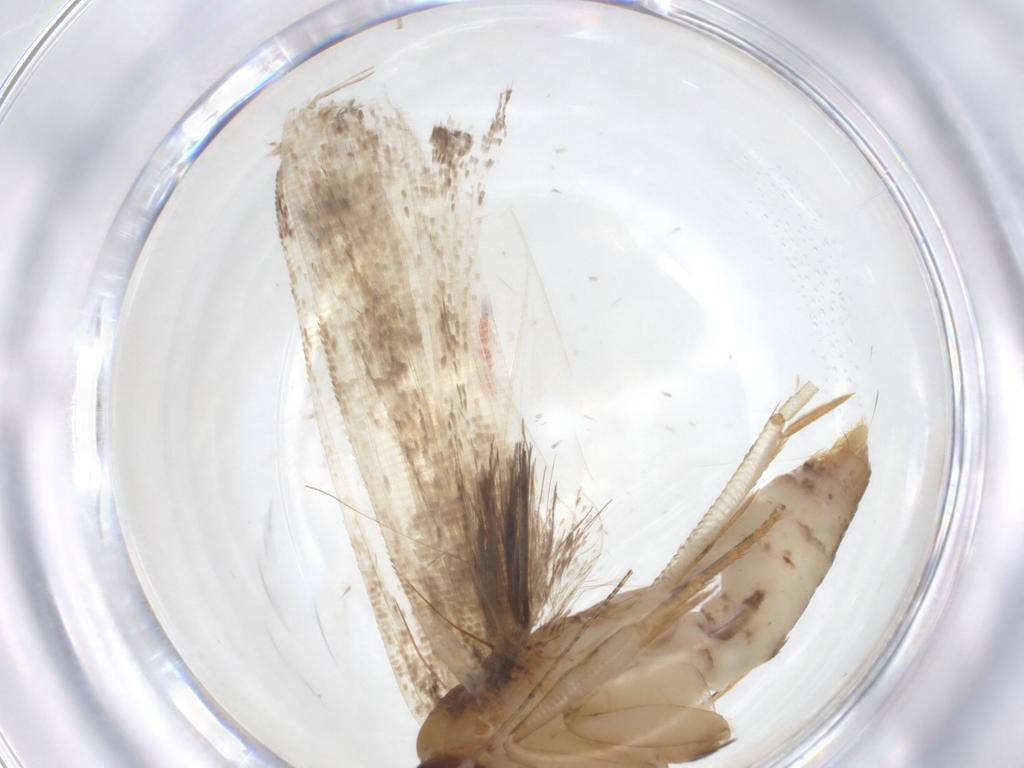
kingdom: Animalia
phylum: Arthropoda
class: Insecta
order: Lepidoptera
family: Gelechiidae
